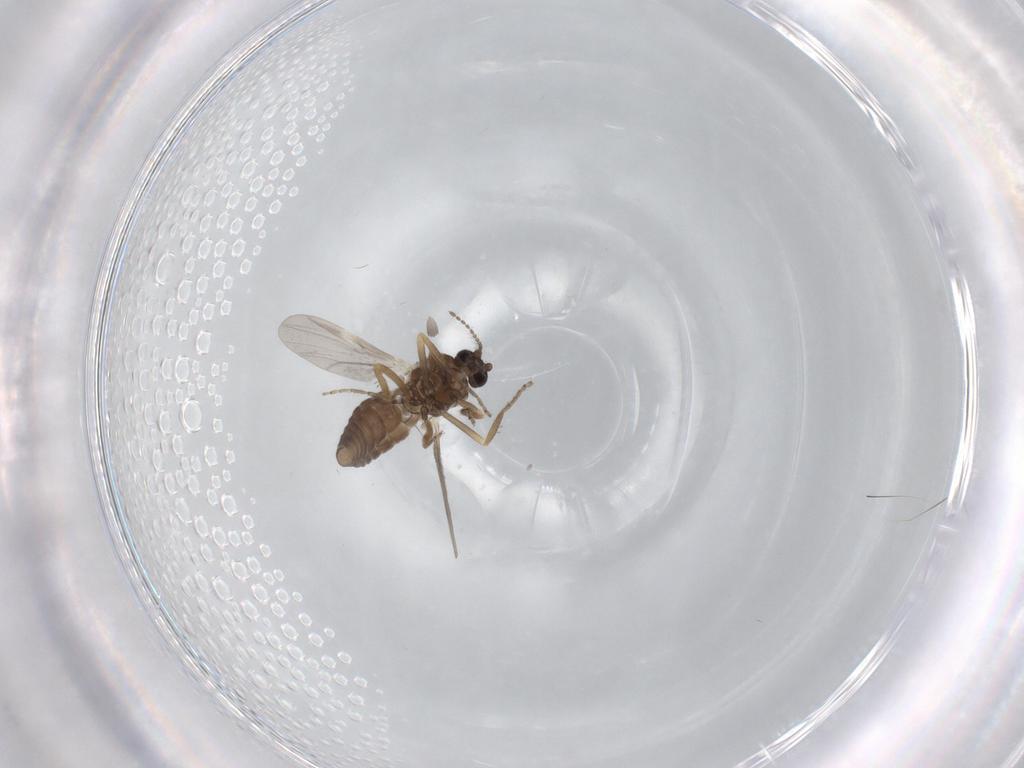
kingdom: Animalia
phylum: Arthropoda
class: Insecta
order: Diptera
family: Ceratopogonidae
